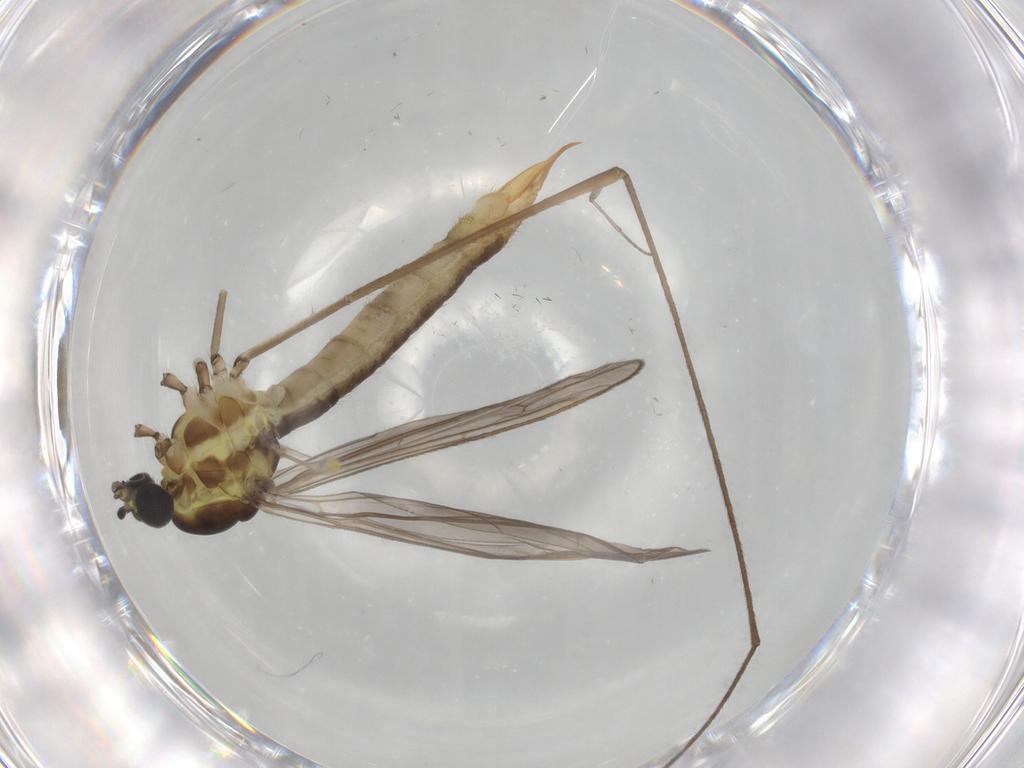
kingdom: Animalia
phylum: Arthropoda
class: Insecta
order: Diptera
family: Limoniidae
